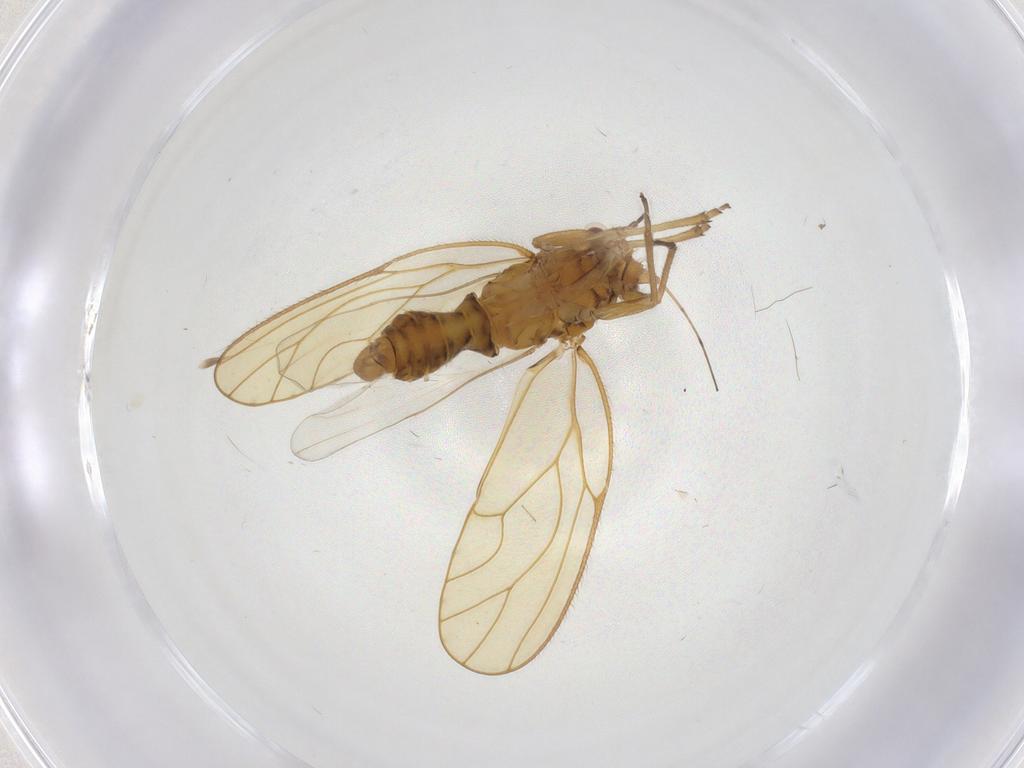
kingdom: Animalia
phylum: Arthropoda
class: Insecta
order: Hemiptera
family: Psyllidae
